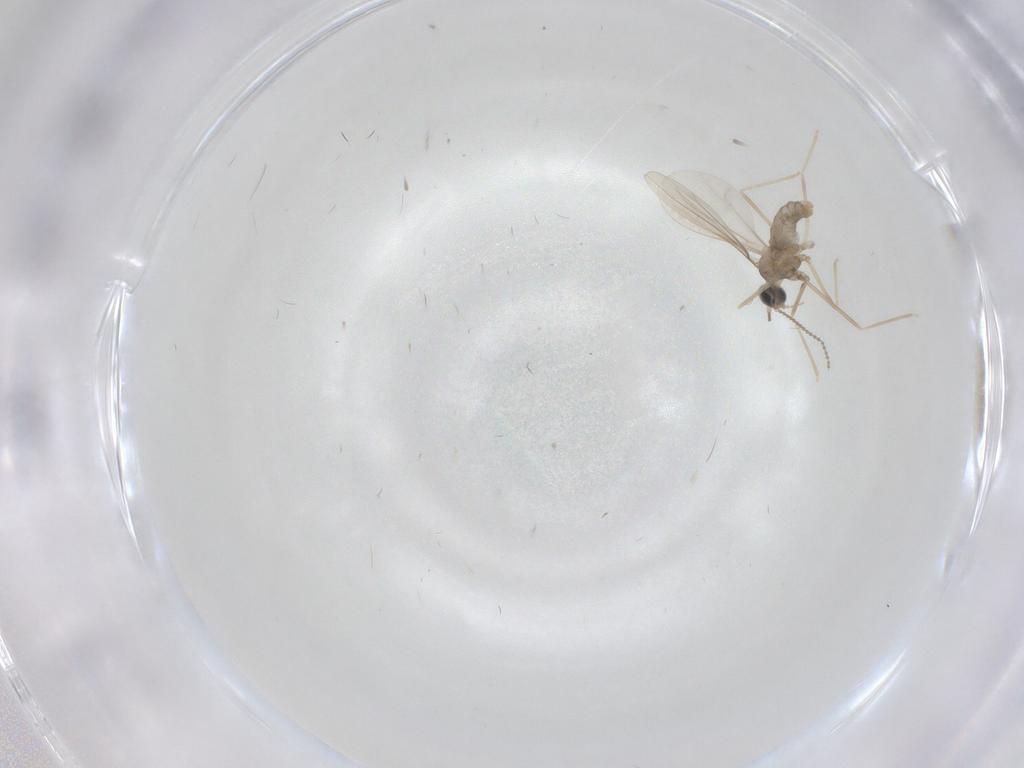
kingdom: Animalia
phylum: Arthropoda
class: Insecta
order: Diptera
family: Cecidomyiidae
